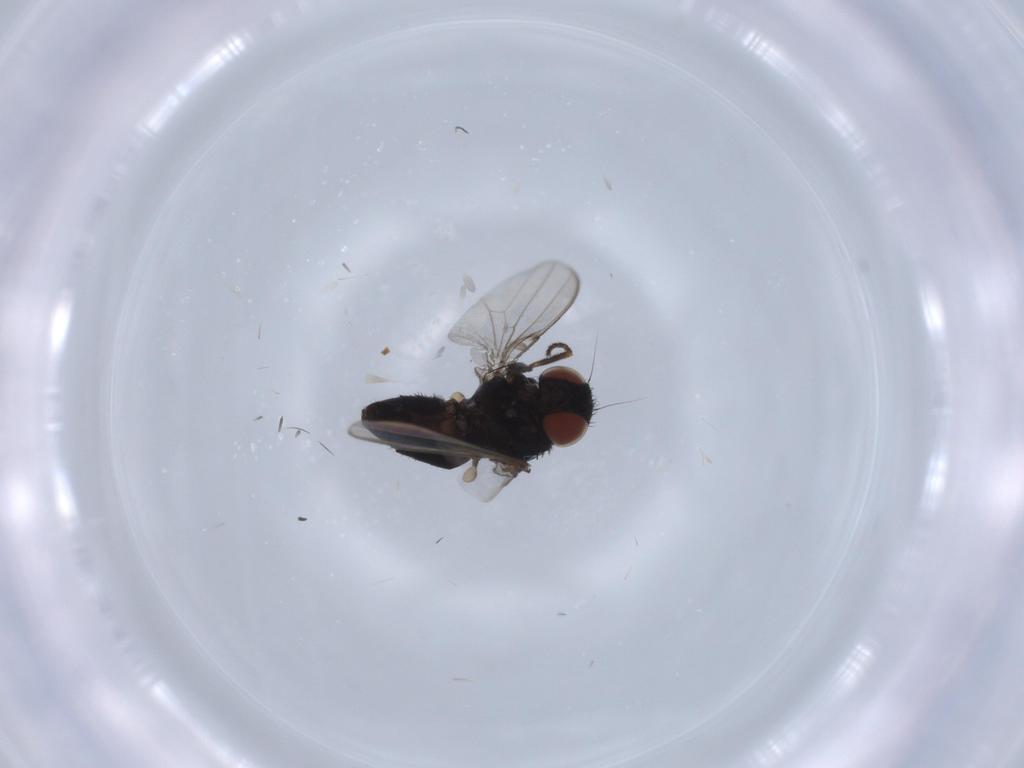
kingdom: Animalia
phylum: Arthropoda
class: Insecta
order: Diptera
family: Milichiidae
